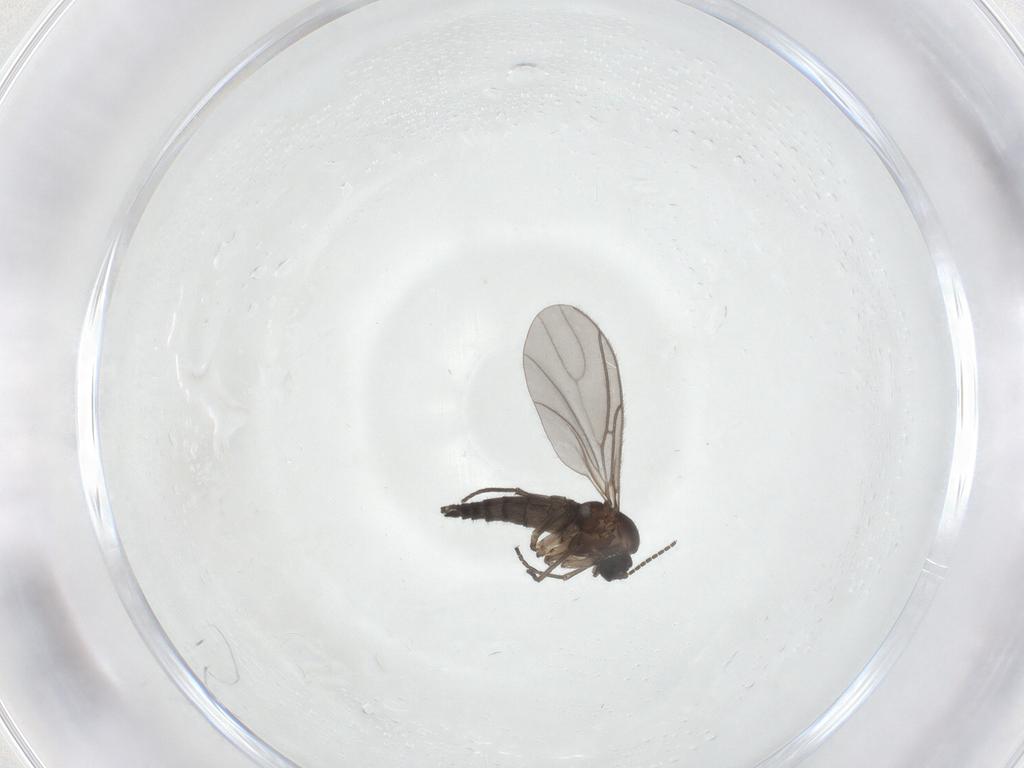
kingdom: Animalia
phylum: Arthropoda
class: Insecta
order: Diptera
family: Sciaridae
